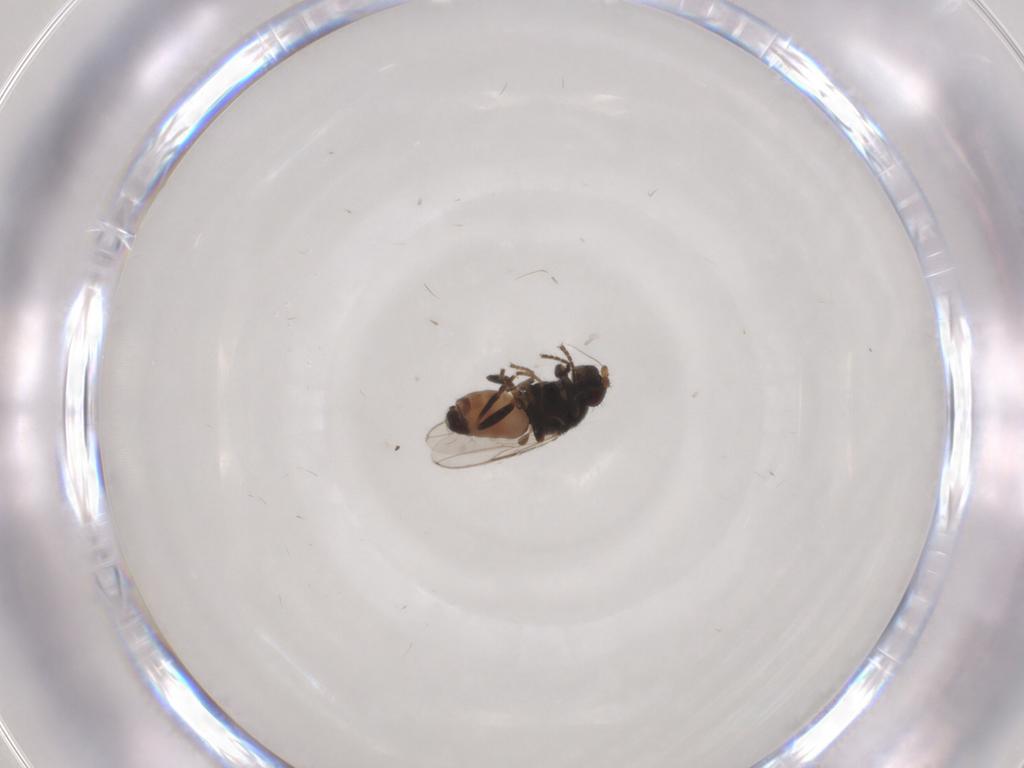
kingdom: Animalia
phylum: Arthropoda
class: Insecta
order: Diptera
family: Sphaeroceridae
